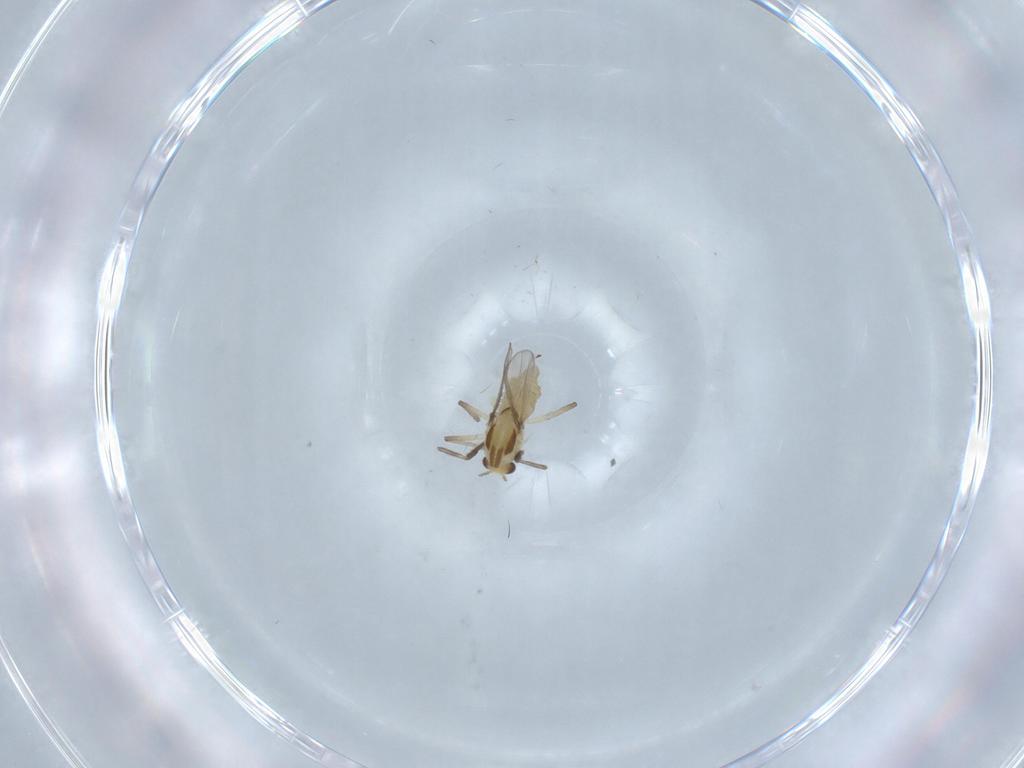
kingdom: Animalia
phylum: Arthropoda
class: Insecta
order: Diptera
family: Chironomidae
